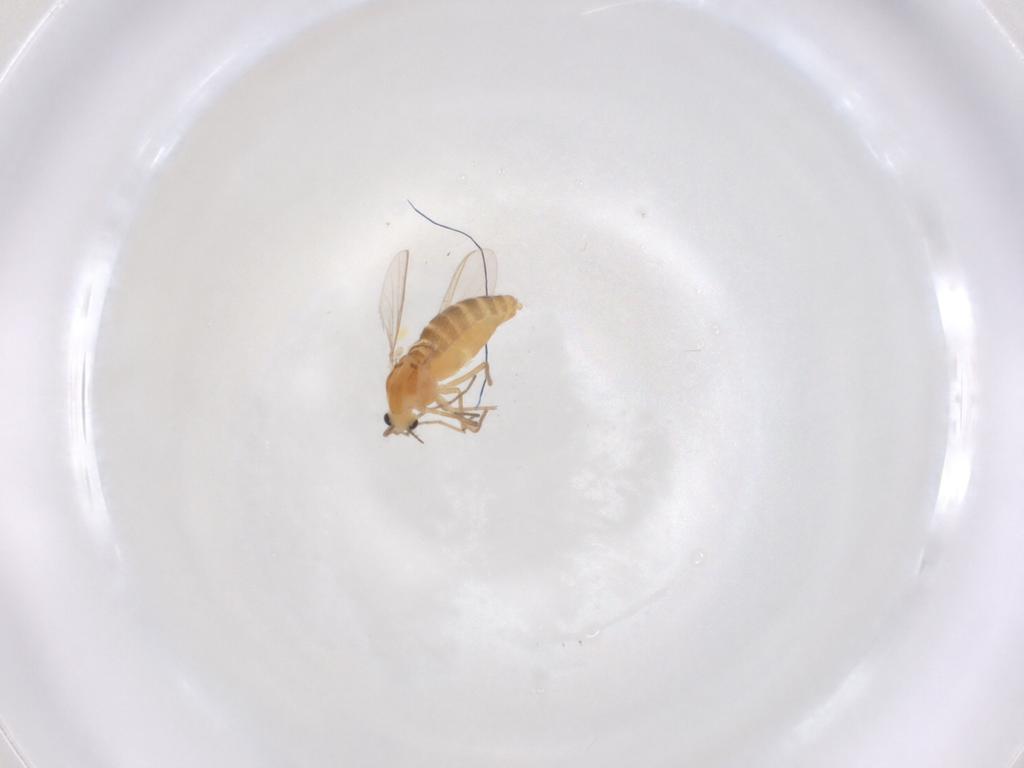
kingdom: Animalia
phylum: Arthropoda
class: Insecta
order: Diptera
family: Chironomidae
